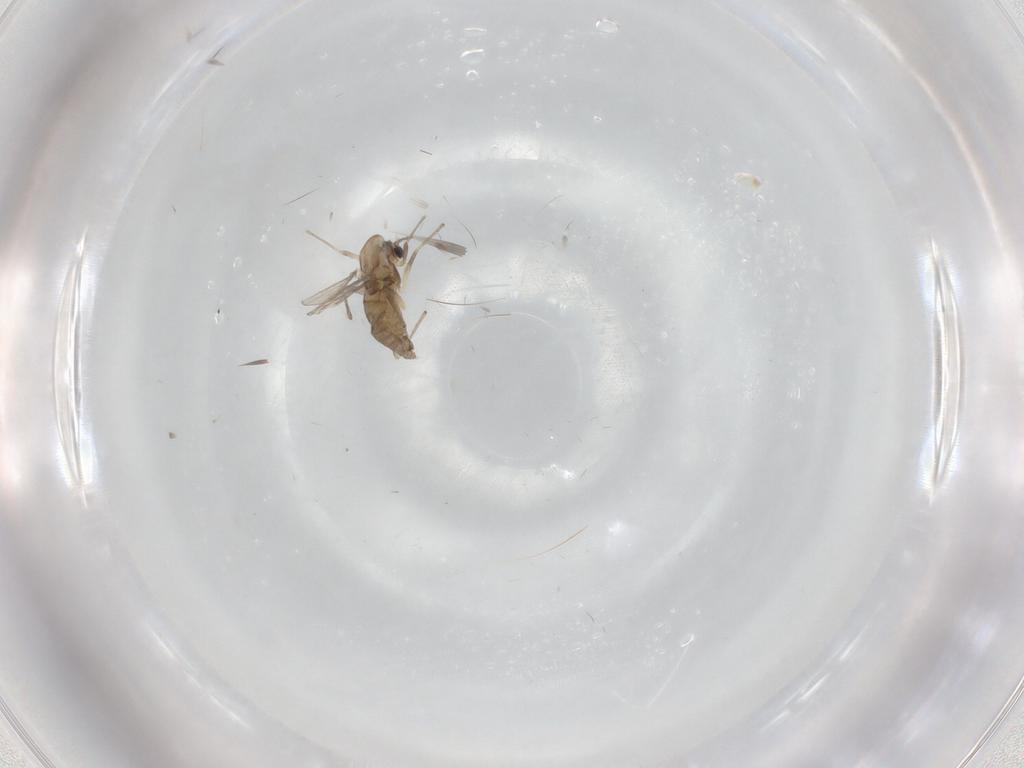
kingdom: Animalia
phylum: Arthropoda
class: Insecta
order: Diptera
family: Chironomidae
